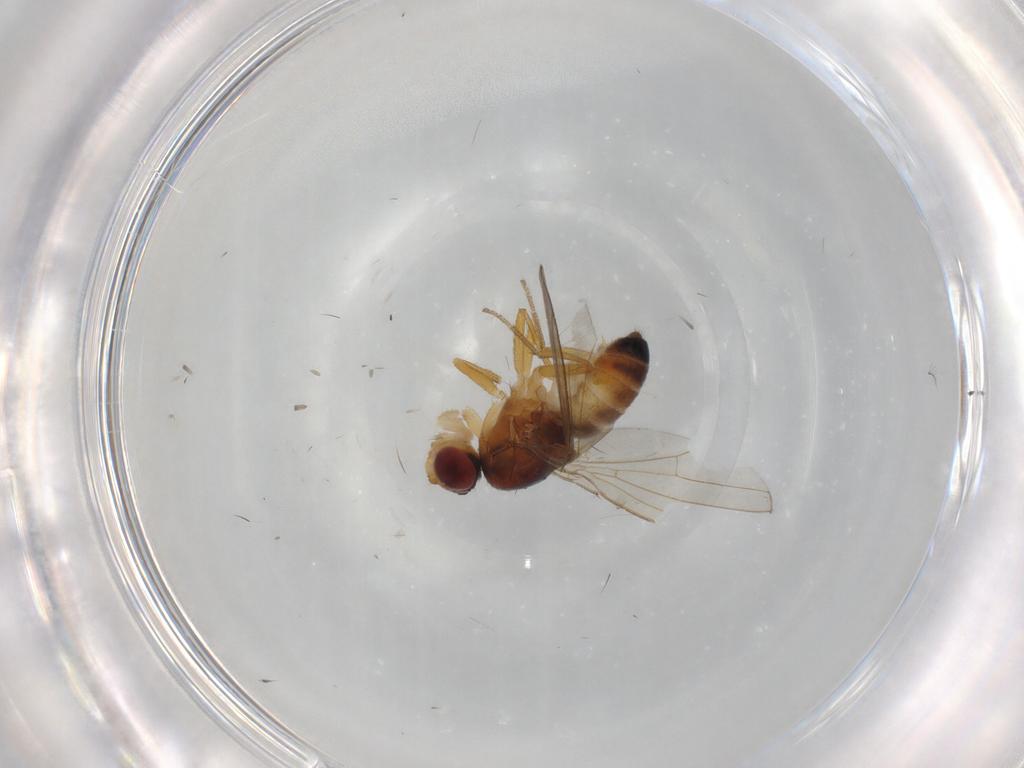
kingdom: Animalia
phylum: Arthropoda
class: Insecta
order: Diptera
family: Drosophilidae
